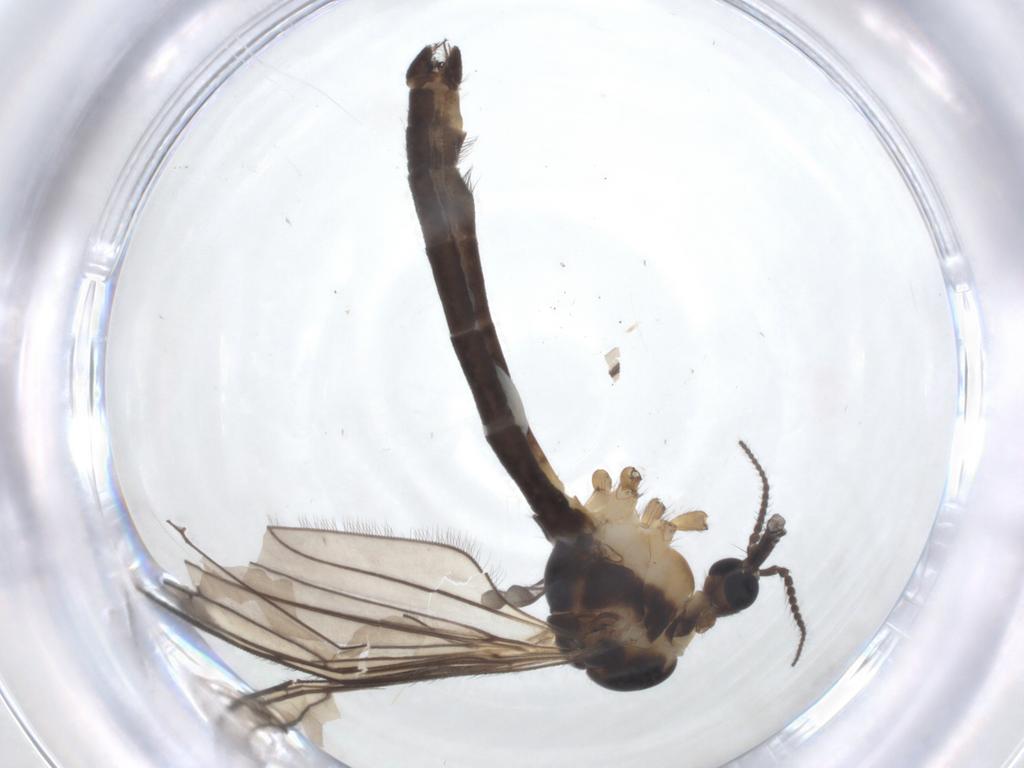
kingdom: Animalia
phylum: Arthropoda
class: Insecta
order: Diptera
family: Limoniidae
